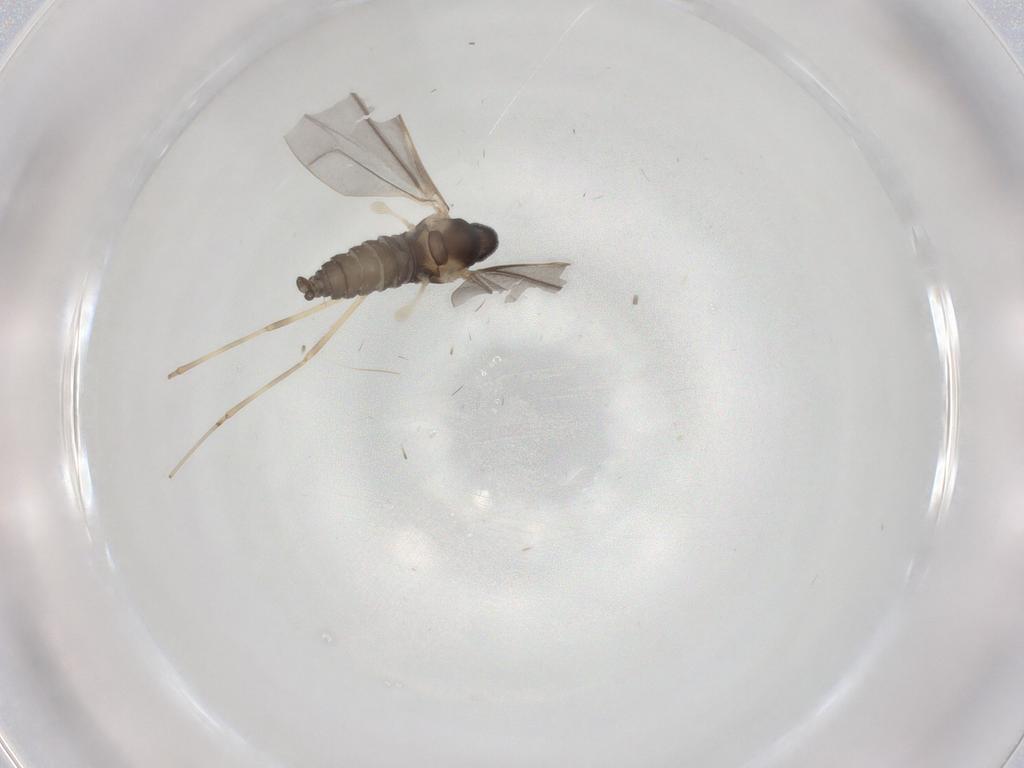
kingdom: Animalia
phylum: Arthropoda
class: Insecta
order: Diptera
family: Cecidomyiidae
